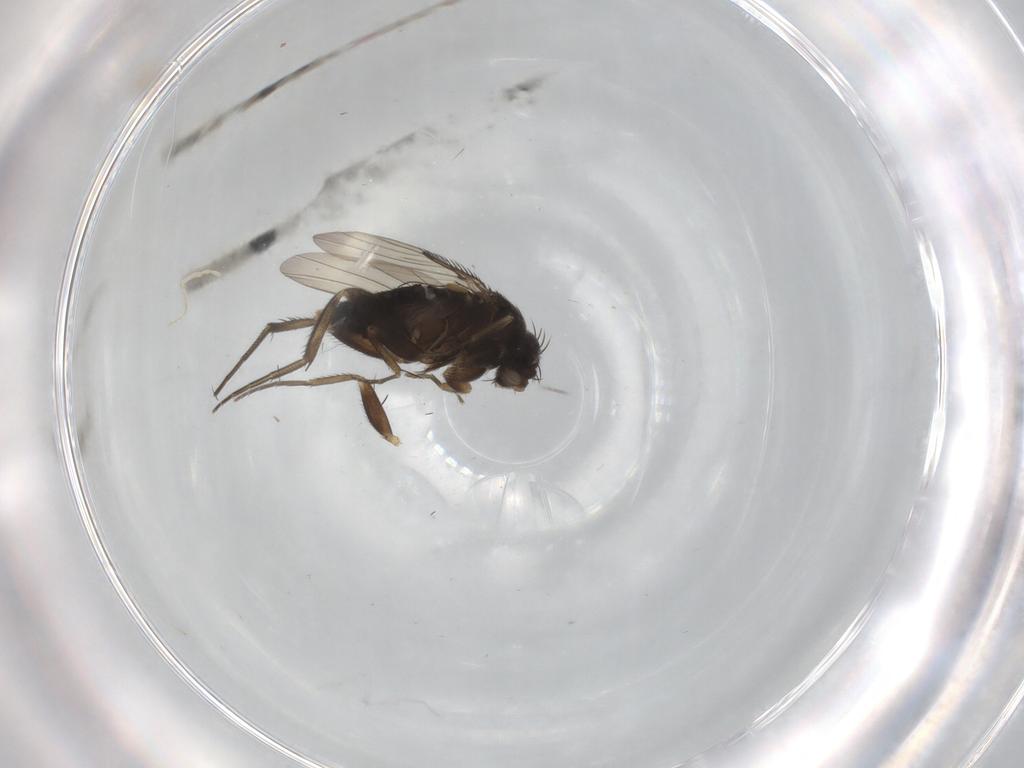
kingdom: Animalia
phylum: Arthropoda
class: Insecta
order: Diptera
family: Phoridae
